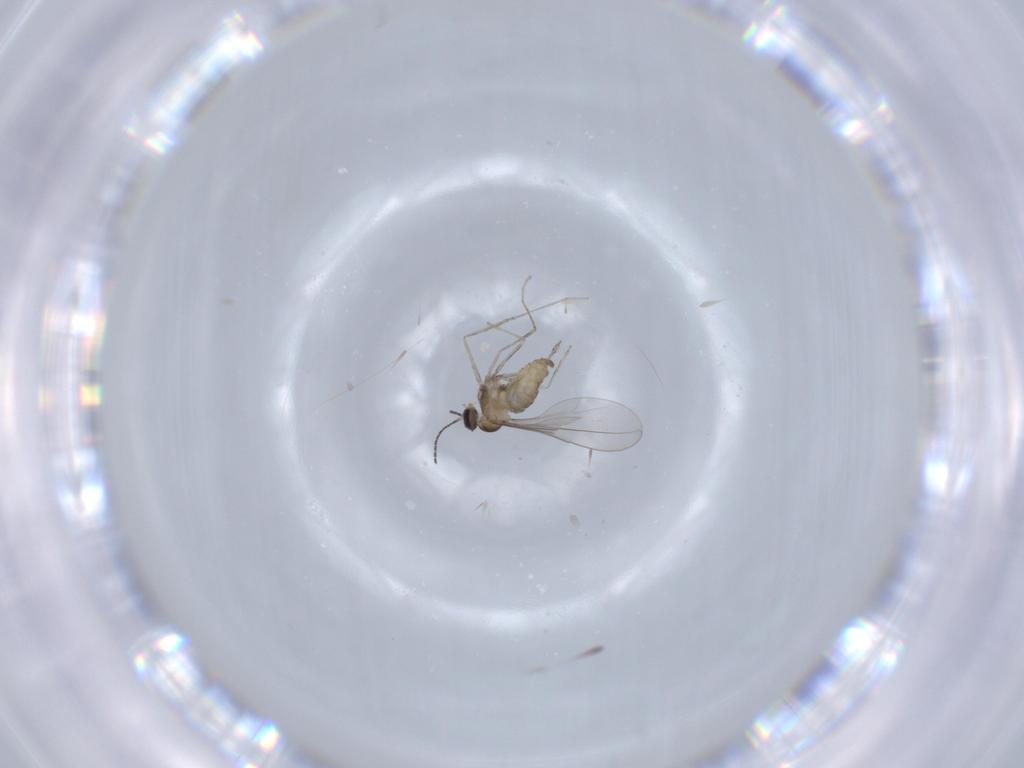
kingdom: Animalia
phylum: Arthropoda
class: Insecta
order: Diptera
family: Cecidomyiidae
